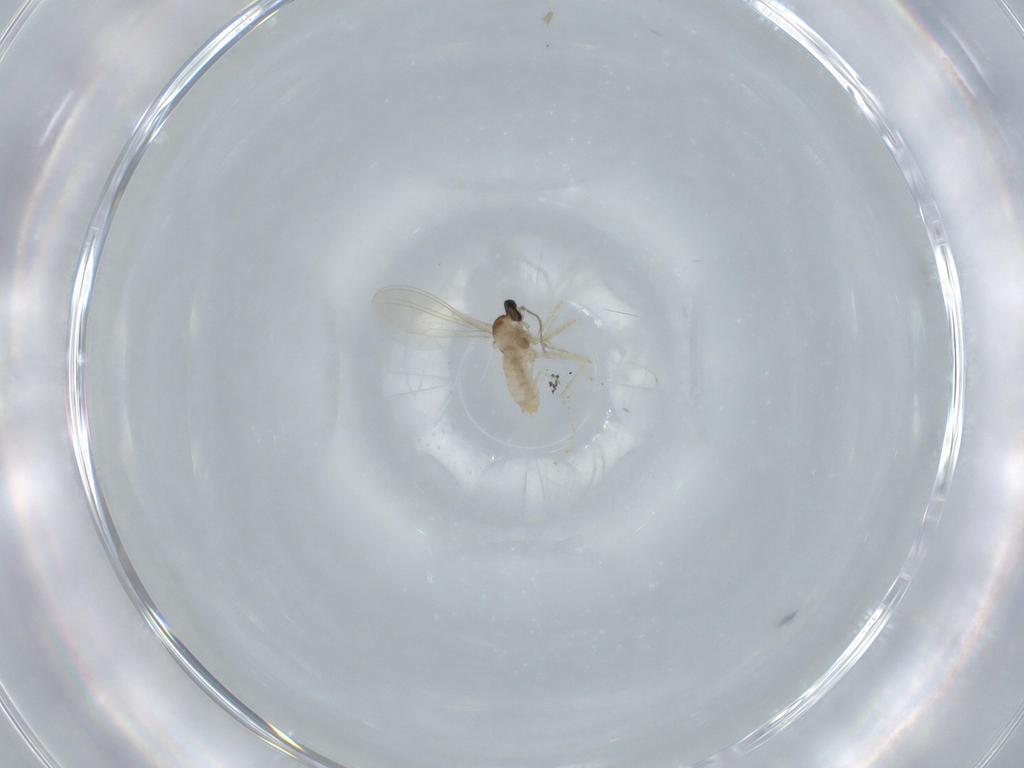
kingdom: Animalia
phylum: Arthropoda
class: Insecta
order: Diptera
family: Cecidomyiidae
